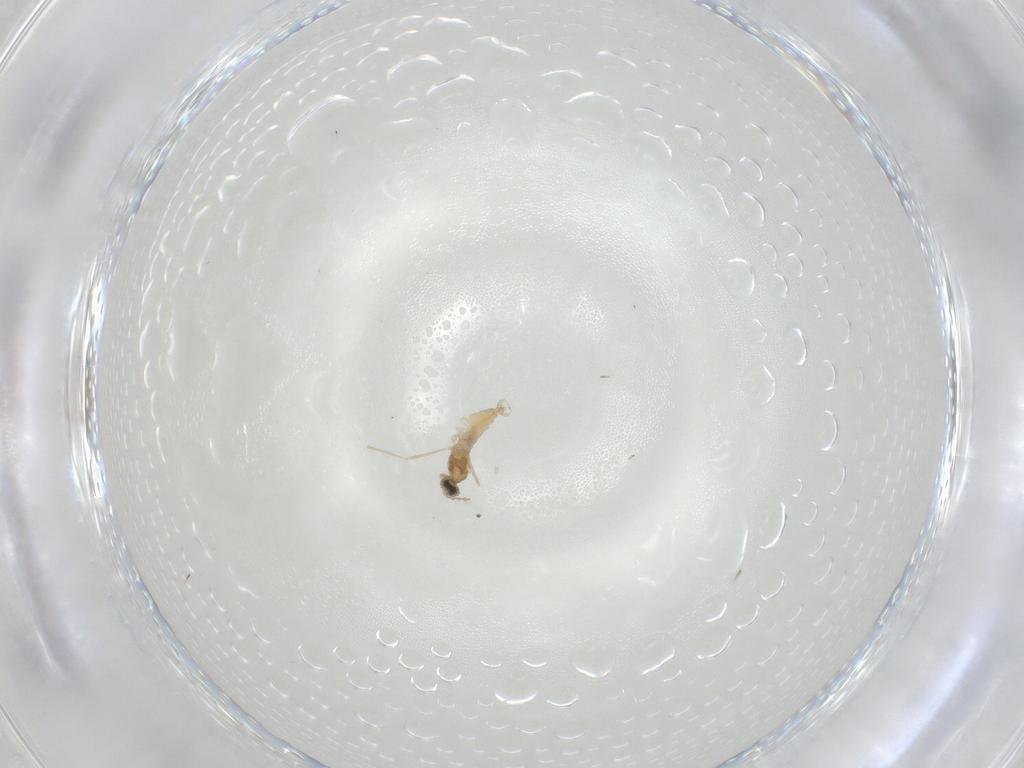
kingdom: Animalia
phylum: Arthropoda
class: Insecta
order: Diptera
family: Cecidomyiidae
